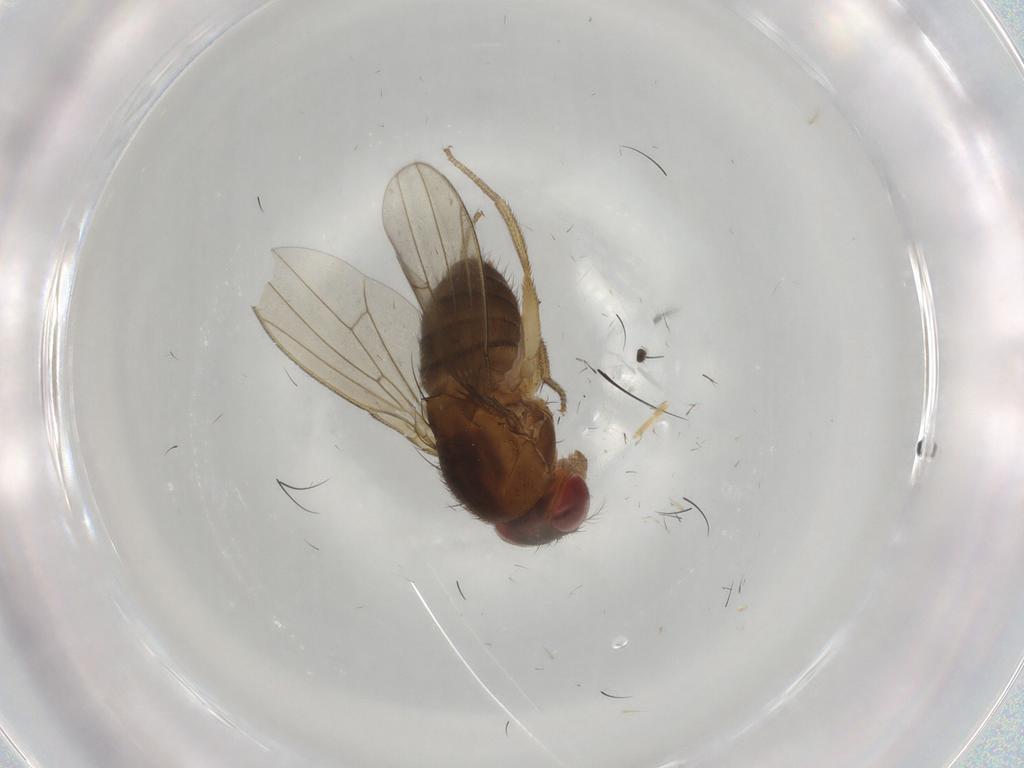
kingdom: Animalia
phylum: Arthropoda
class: Insecta
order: Diptera
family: Drosophilidae
